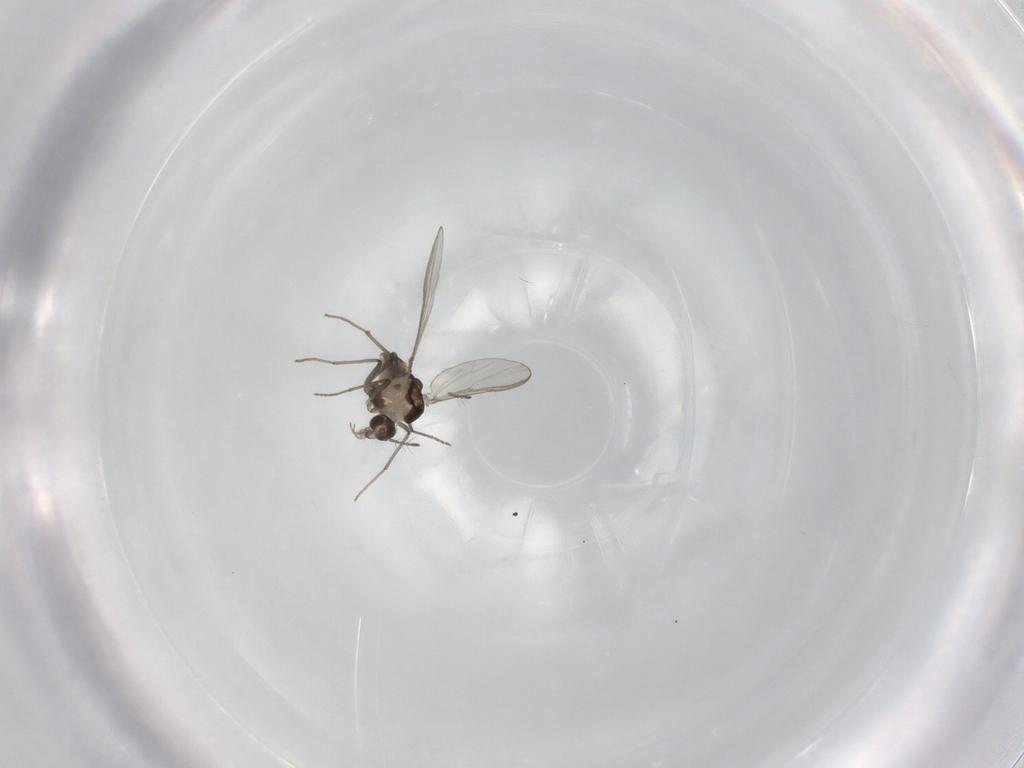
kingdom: Animalia
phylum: Arthropoda
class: Insecta
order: Diptera
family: Chironomidae
